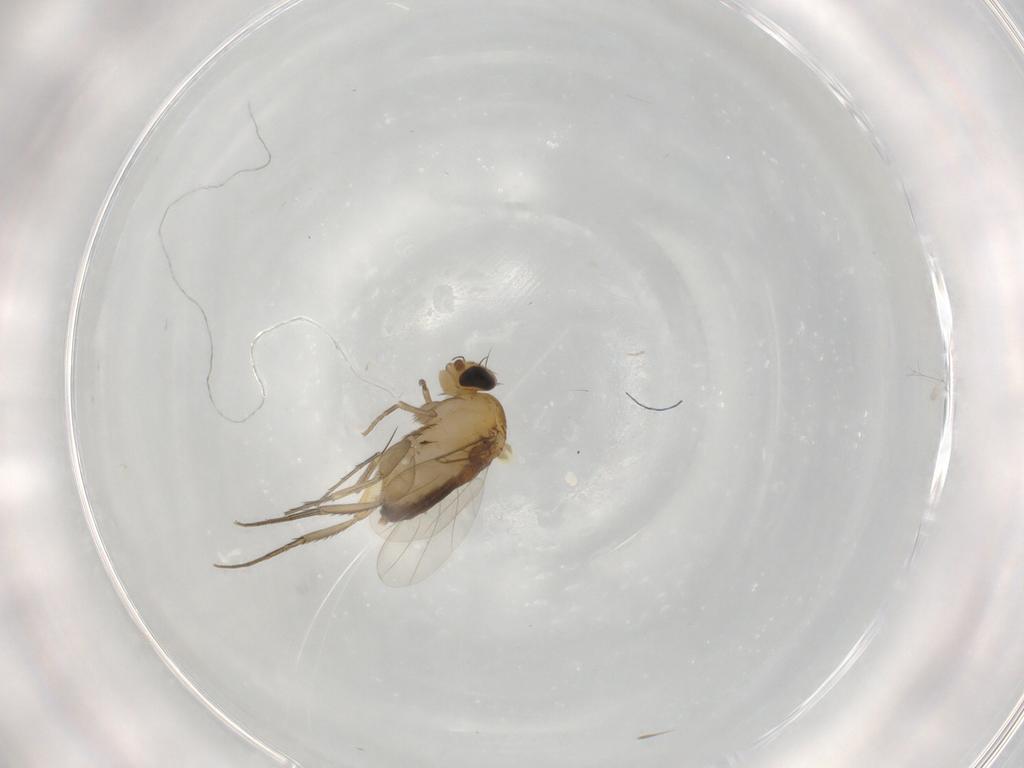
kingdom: Animalia
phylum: Arthropoda
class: Insecta
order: Diptera
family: Phoridae
